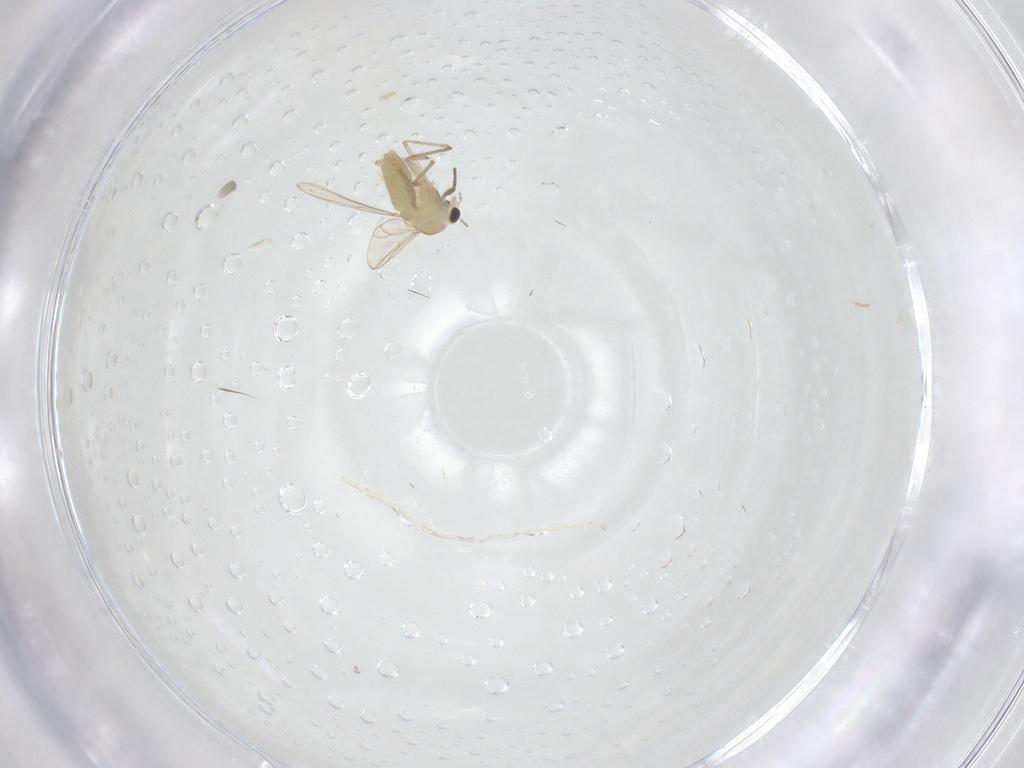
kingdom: Animalia
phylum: Arthropoda
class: Insecta
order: Diptera
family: Chironomidae
